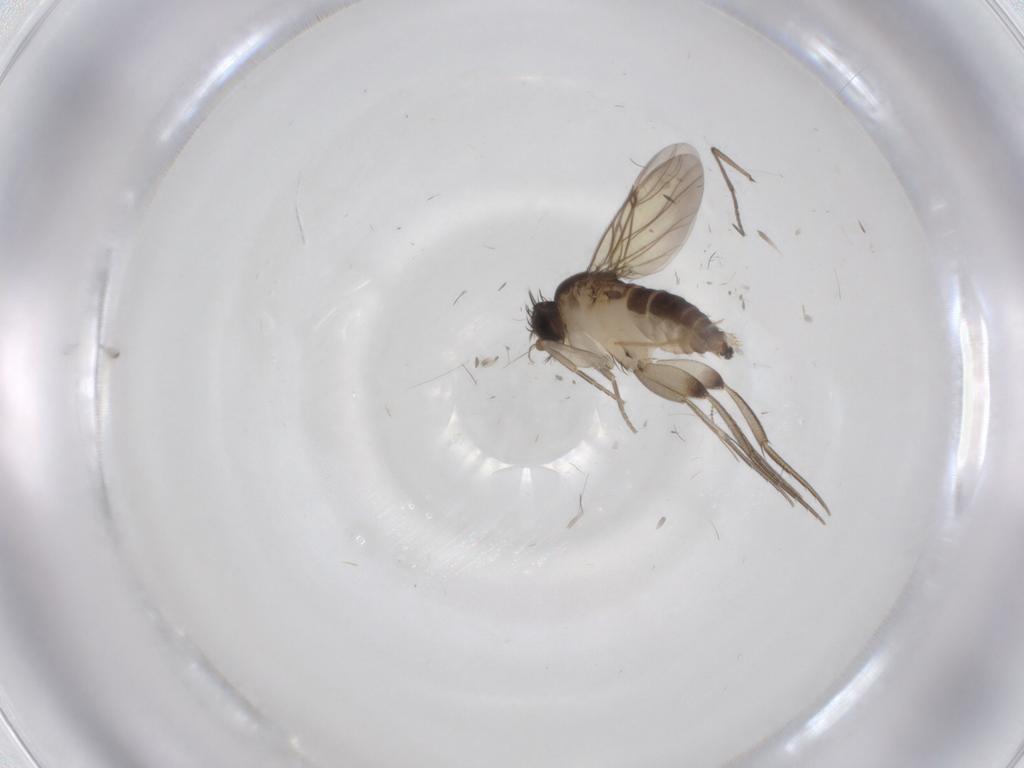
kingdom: Animalia
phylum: Arthropoda
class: Insecta
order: Diptera
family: Phoridae
